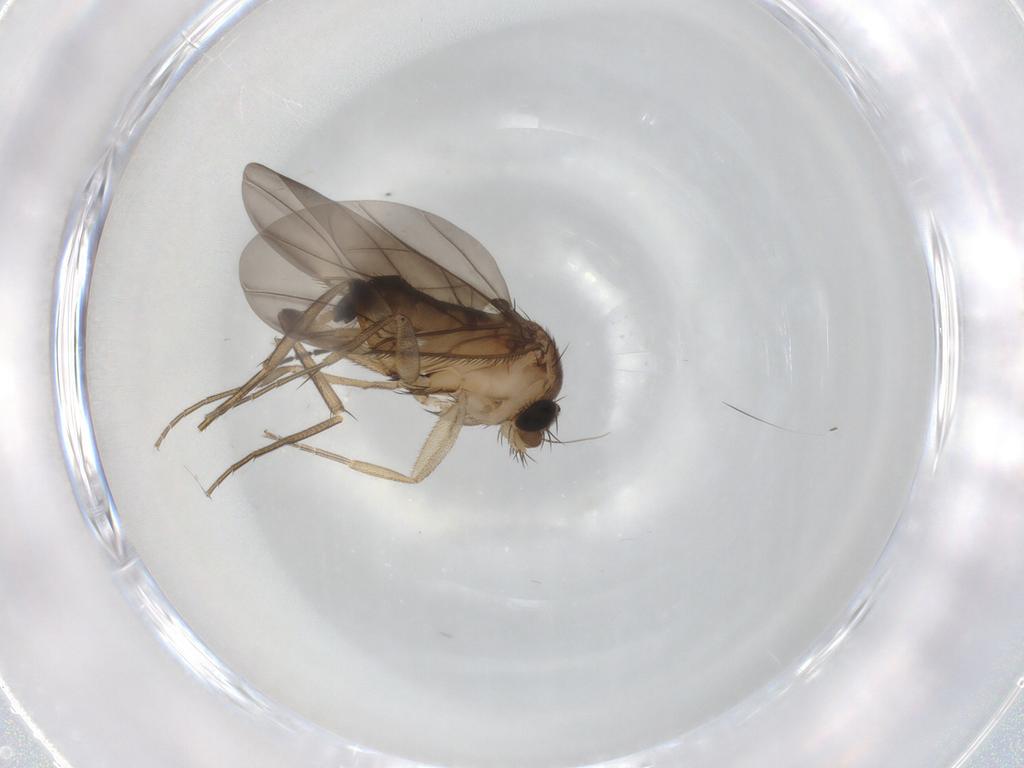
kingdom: Animalia
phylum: Arthropoda
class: Insecta
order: Diptera
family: Phoridae
